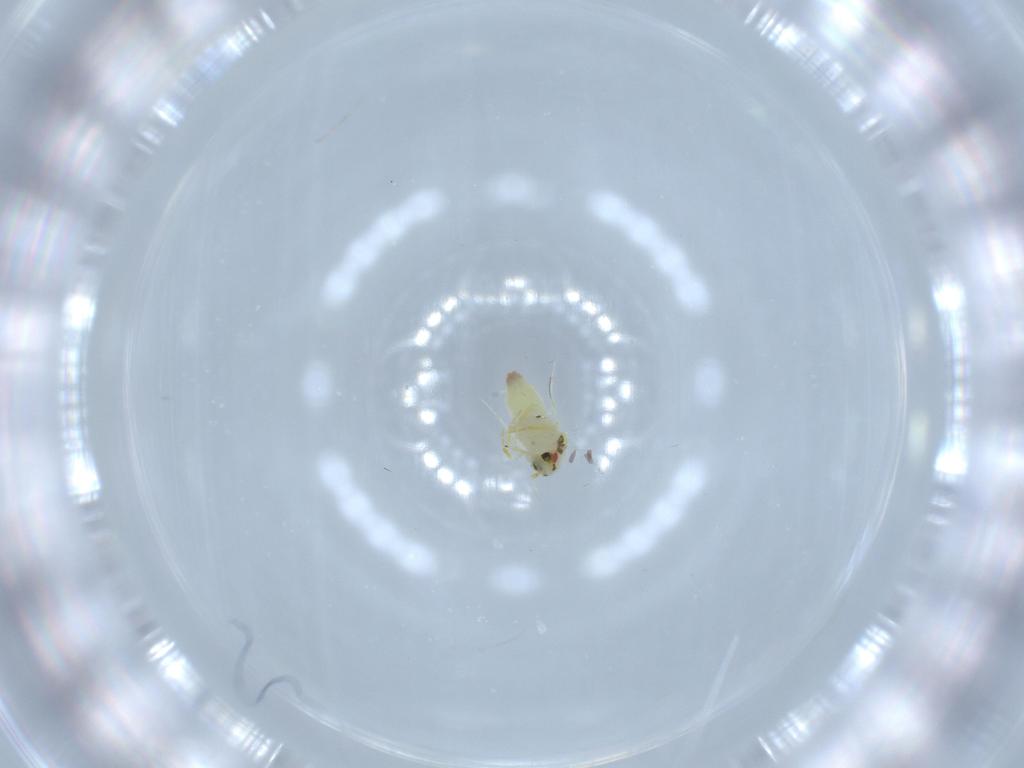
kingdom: Animalia
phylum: Arthropoda
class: Insecta
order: Hemiptera
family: Aleyrodidae
